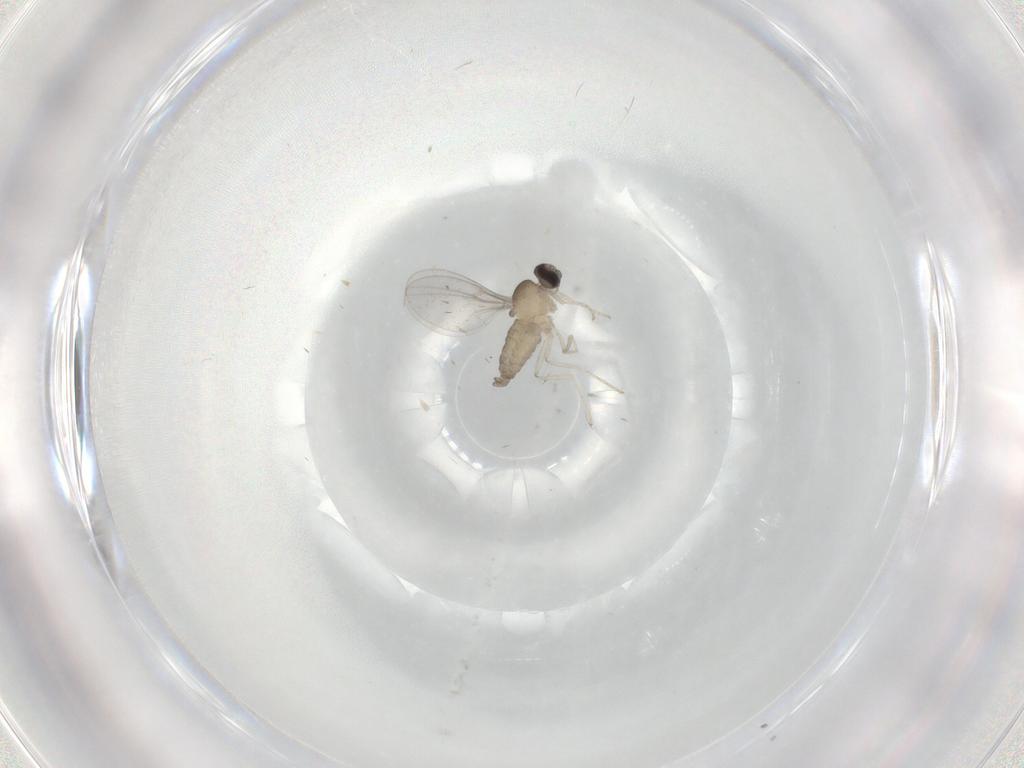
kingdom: Animalia
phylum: Arthropoda
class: Insecta
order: Diptera
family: Cecidomyiidae
